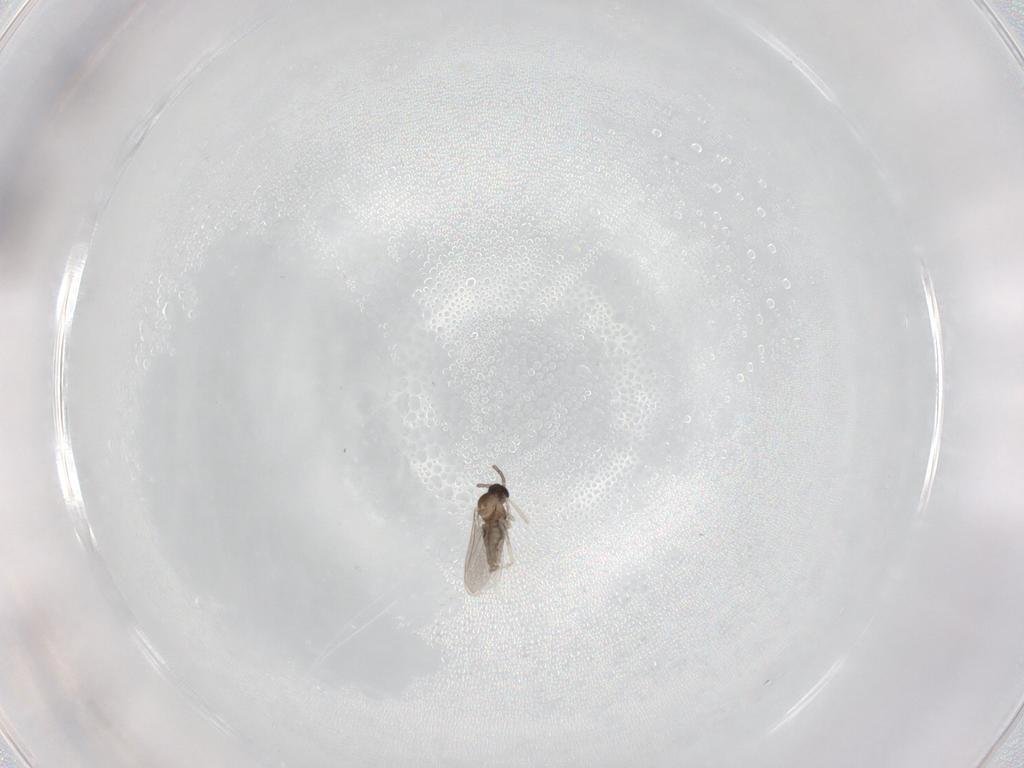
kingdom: Animalia
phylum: Arthropoda
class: Insecta
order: Diptera
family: Cecidomyiidae
